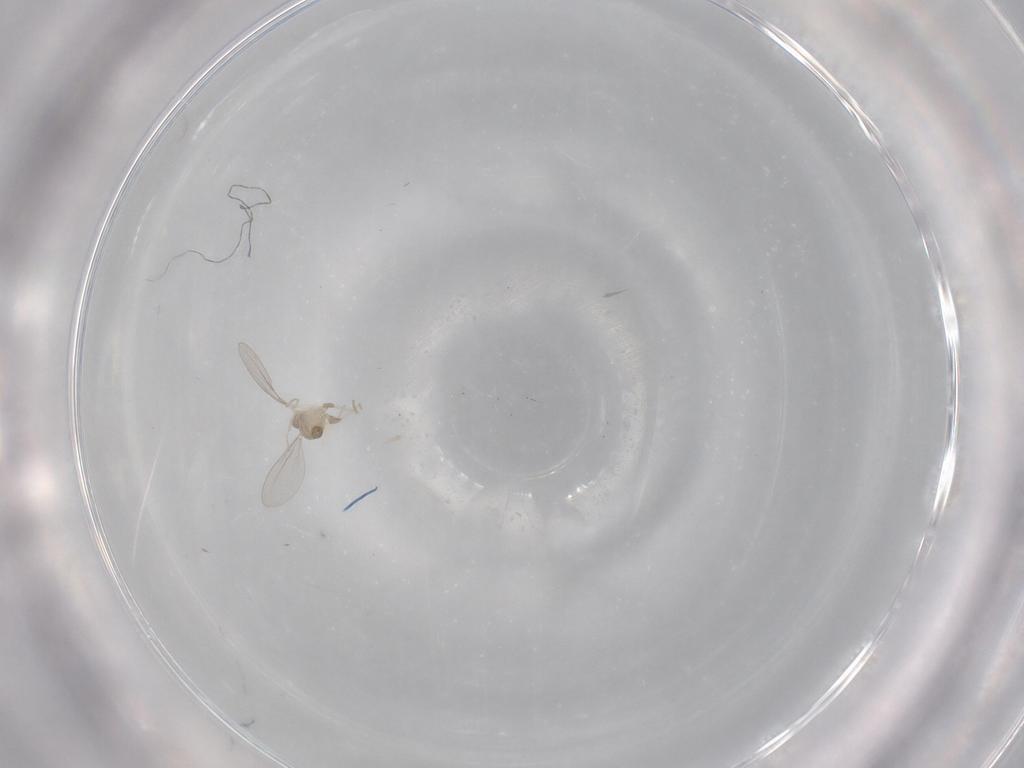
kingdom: Animalia
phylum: Arthropoda
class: Insecta
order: Diptera
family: Cecidomyiidae
